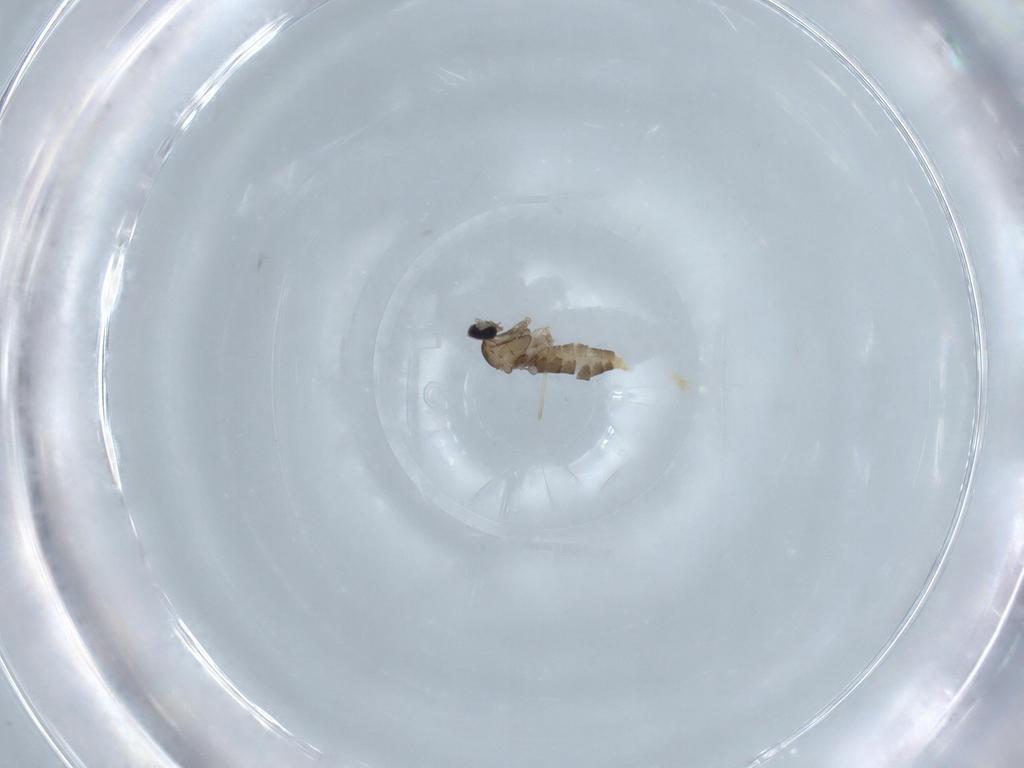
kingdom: Animalia
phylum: Arthropoda
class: Insecta
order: Diptera
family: Cecidomyiidae
